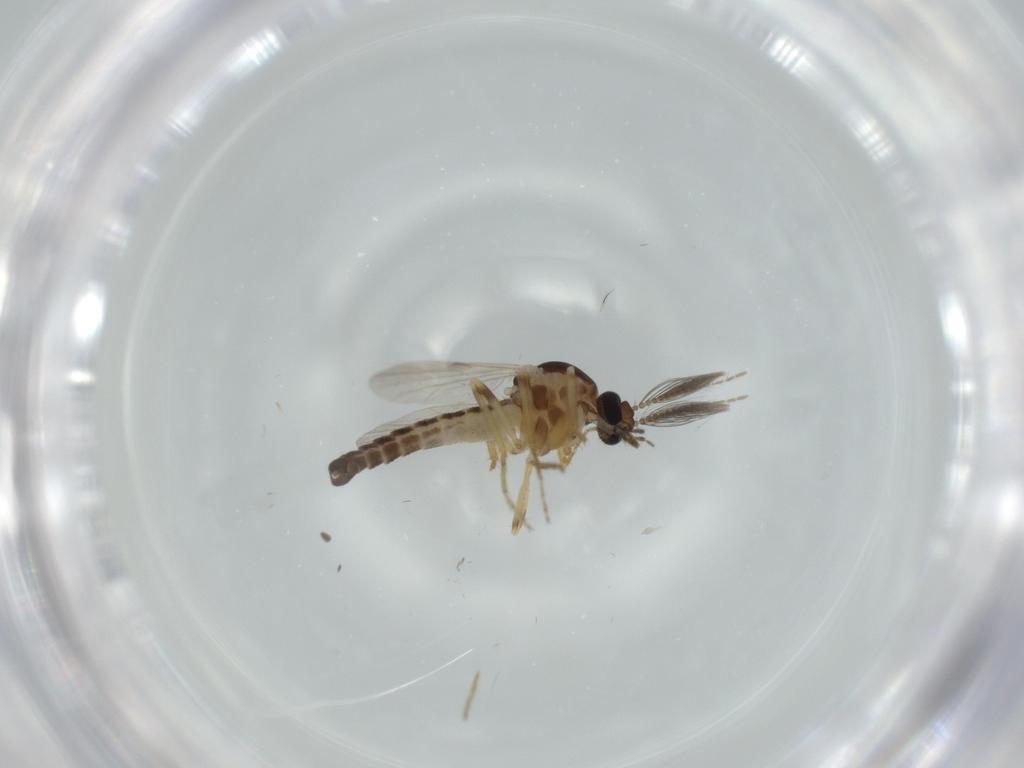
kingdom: Animalia
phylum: Arthropoda
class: Insecta
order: Diptera
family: Ceratopogonidae
